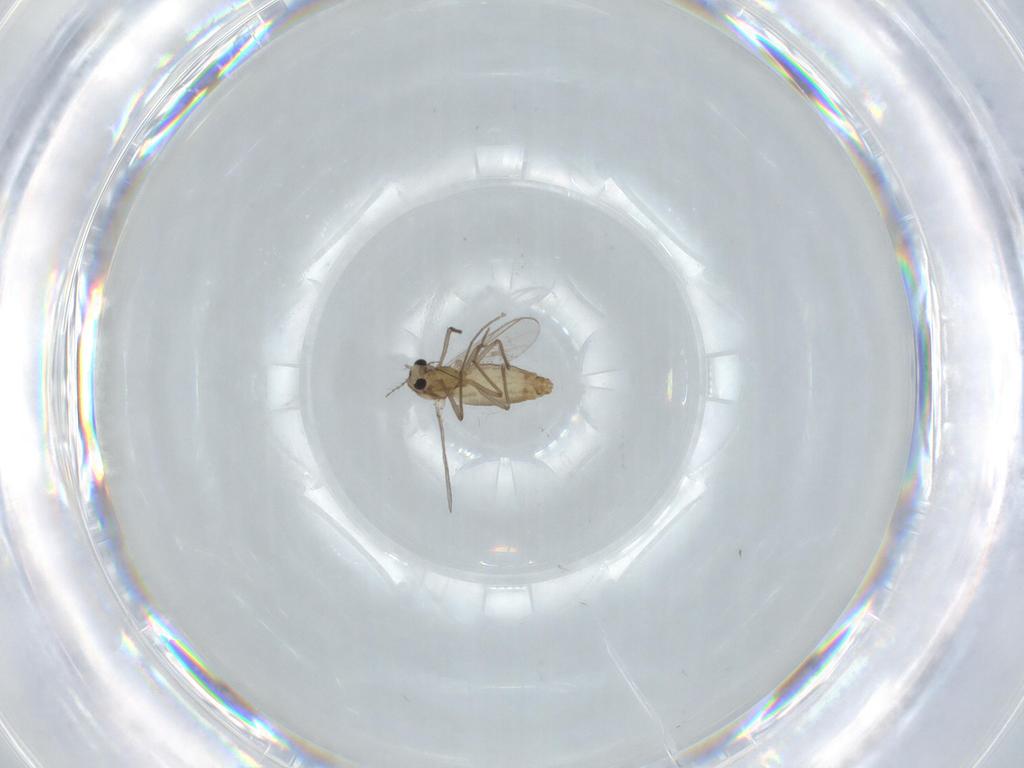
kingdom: Animalia
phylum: Arthropoda
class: Insecta
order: Diptera
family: Chironomidae
